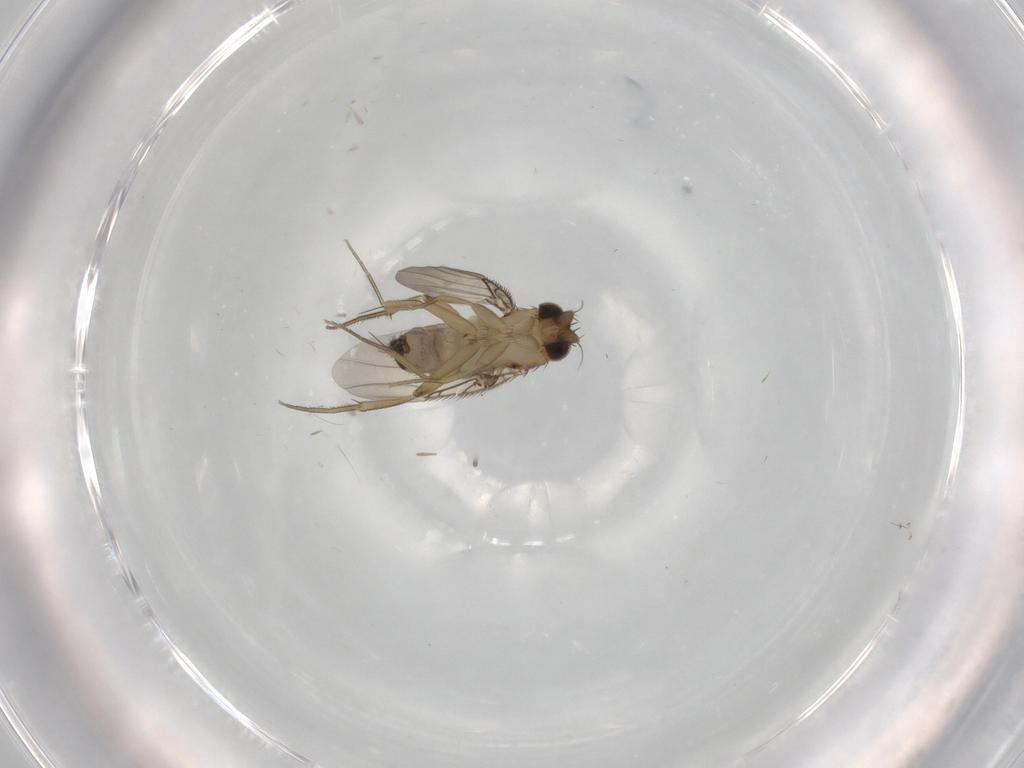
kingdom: Animalia
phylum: Arthropoda
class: Insecta
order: Diptera
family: Phoridae
